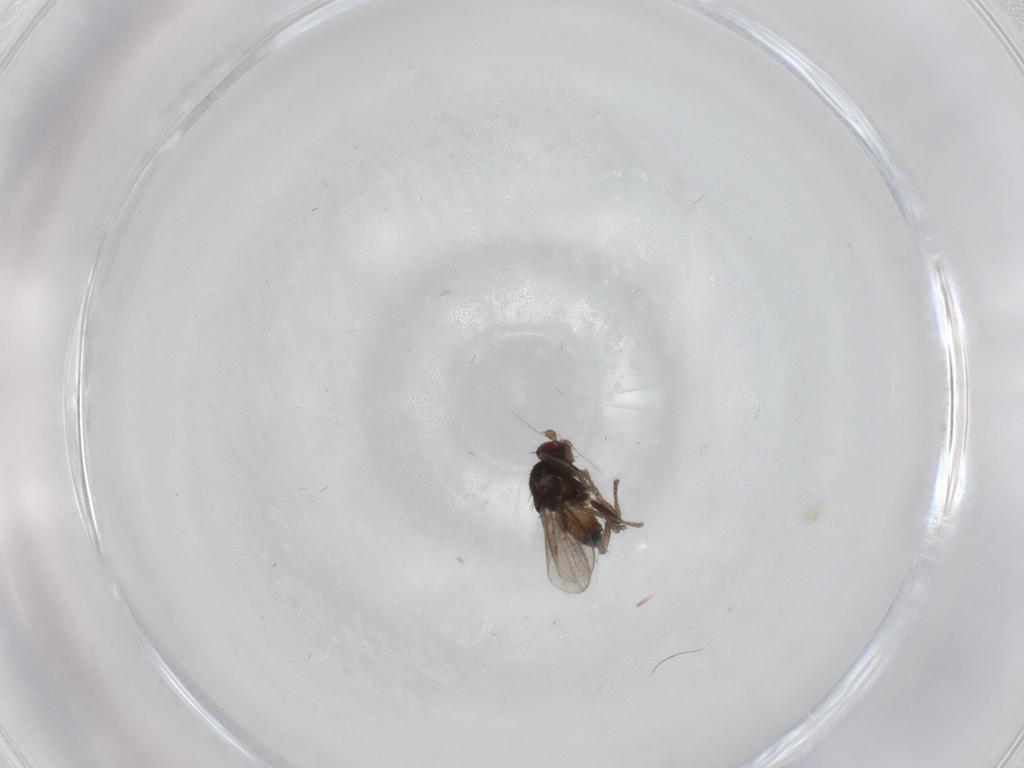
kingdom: Animalia
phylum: Arthropoda
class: Insecta
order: Diptera
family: Sphaeroceridae
